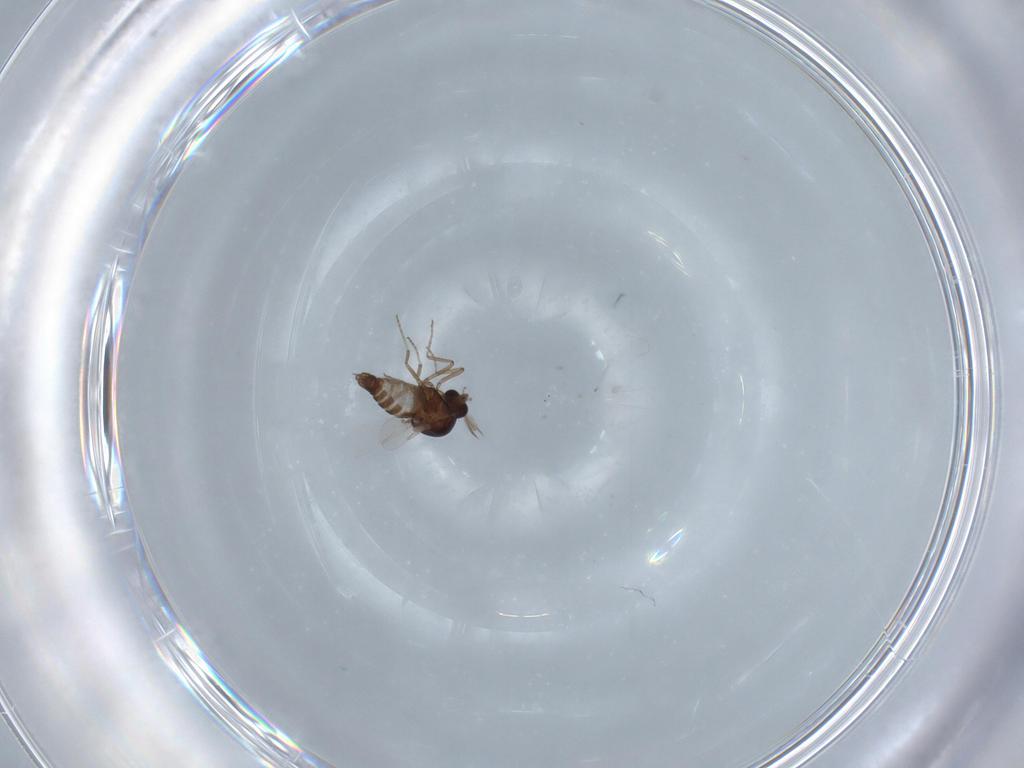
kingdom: Animalia
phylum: Arthropoda
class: Insecta
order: Diptera
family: Ceratopogonidae
